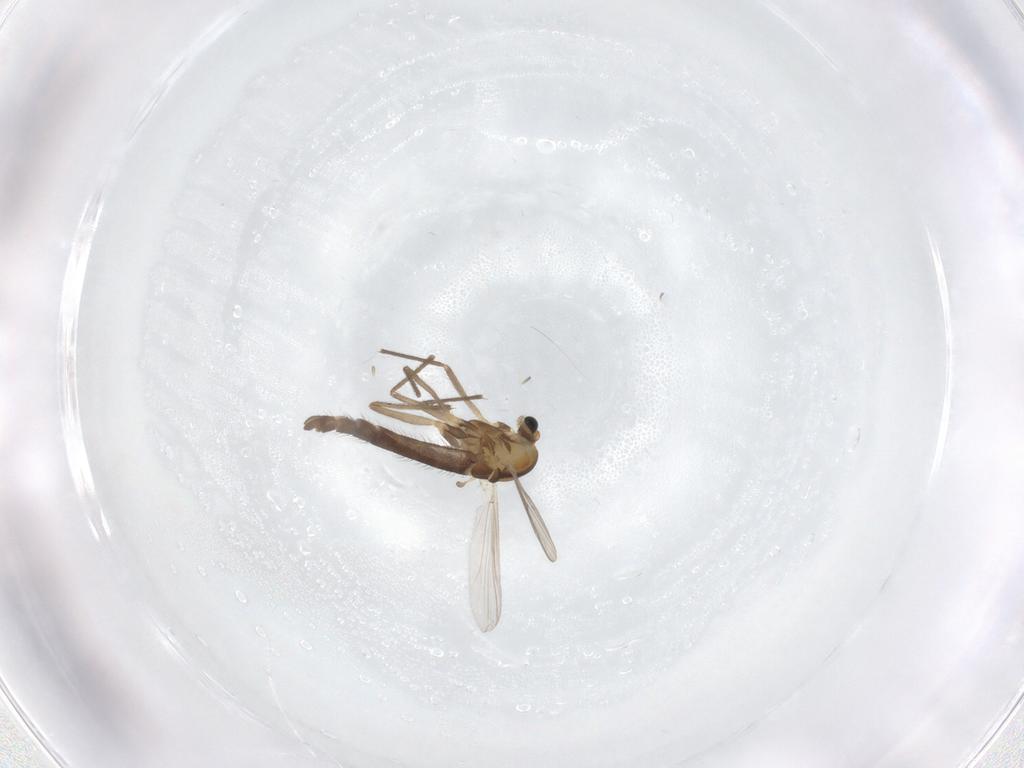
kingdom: Animalia
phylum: Arthropoda
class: Insecta
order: Diptera
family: Chironomidae
